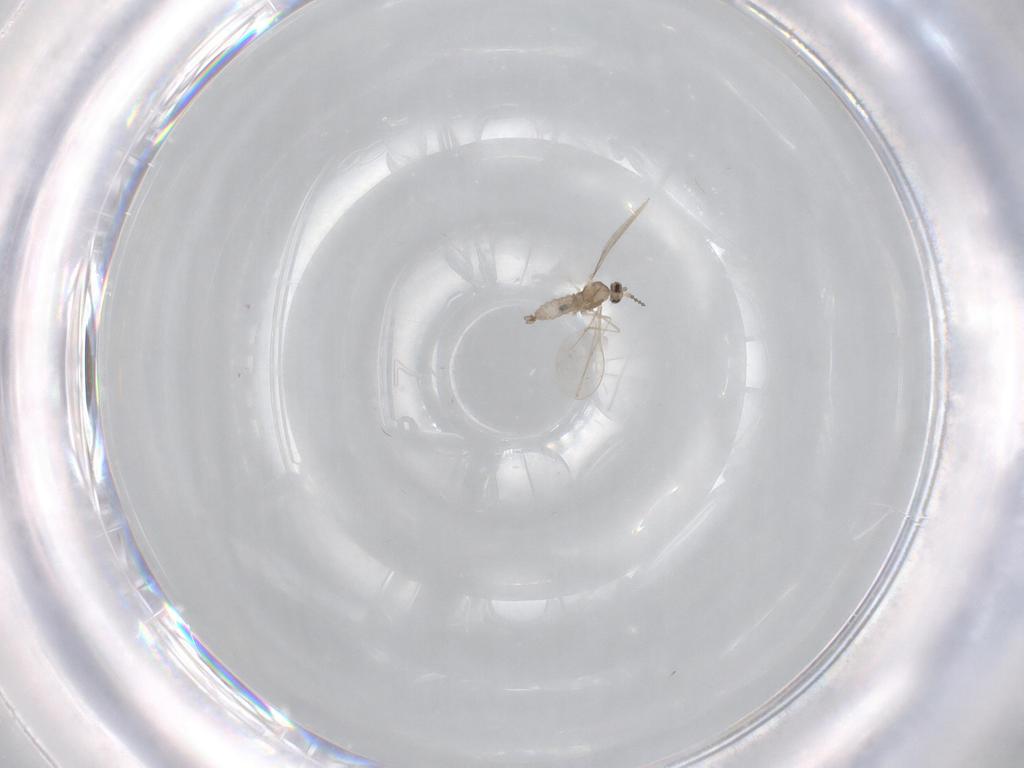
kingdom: Animalia
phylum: Arthropoda
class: Insecta
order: Diptera
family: Cecidomyiidae
